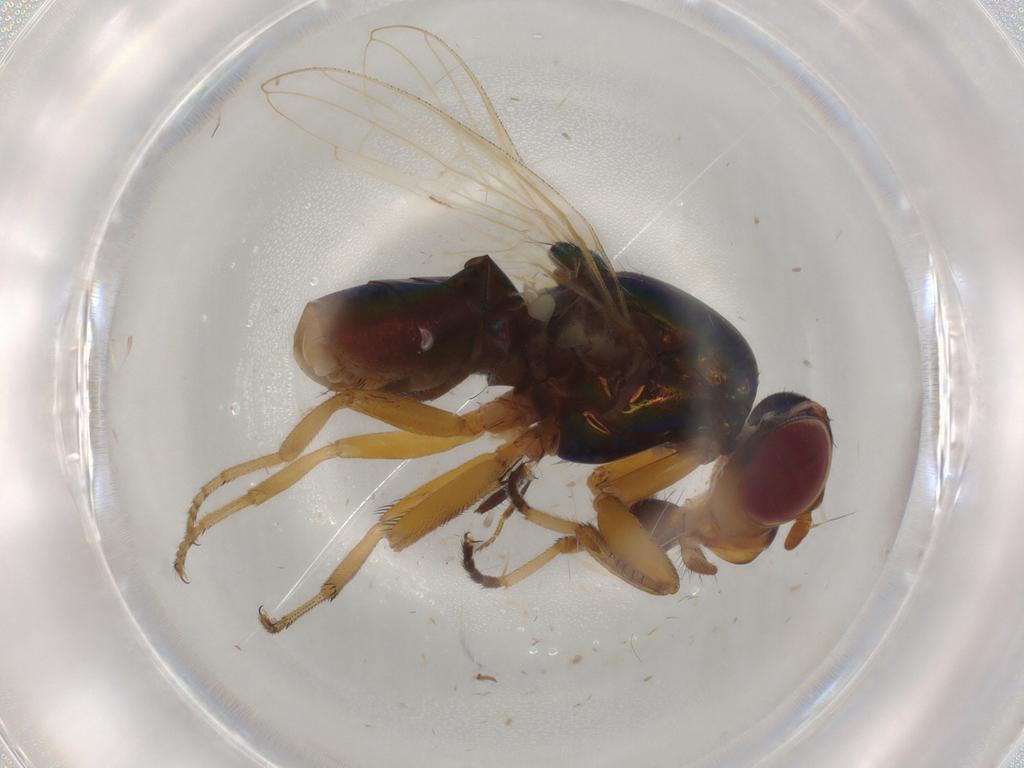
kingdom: Animalia
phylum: Arthropoda
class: Insecta
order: Diptera
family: Ulidiidae
